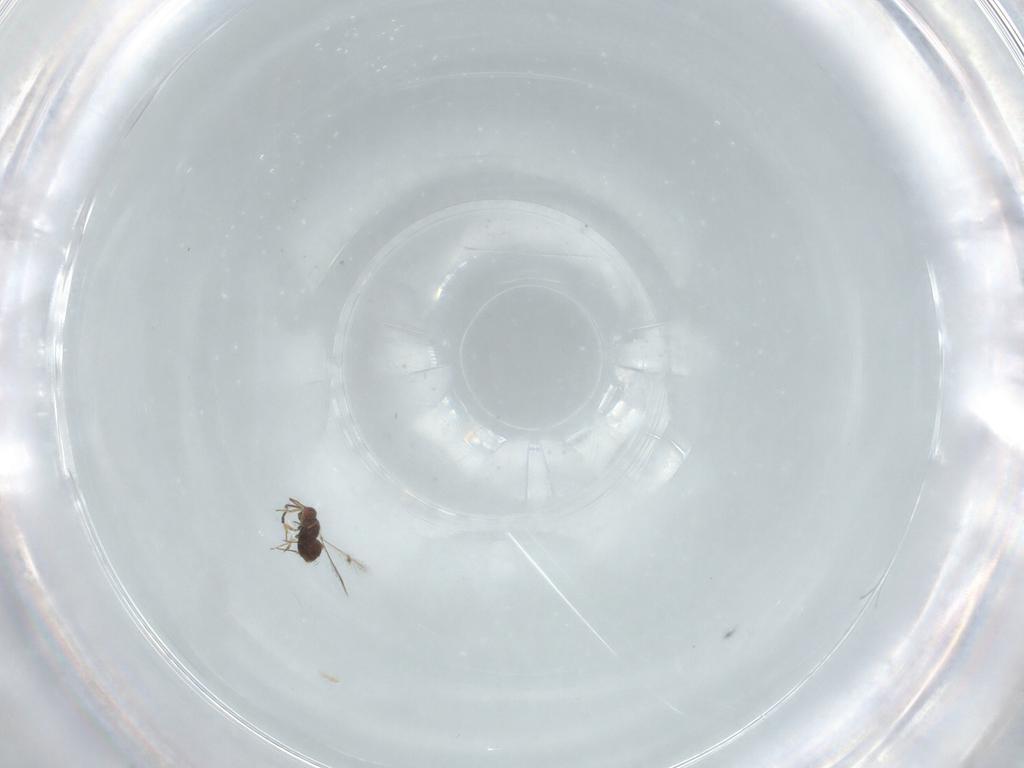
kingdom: Animalia
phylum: Arthropoda
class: Insecta
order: Hymenoptera
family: Mymaridae
